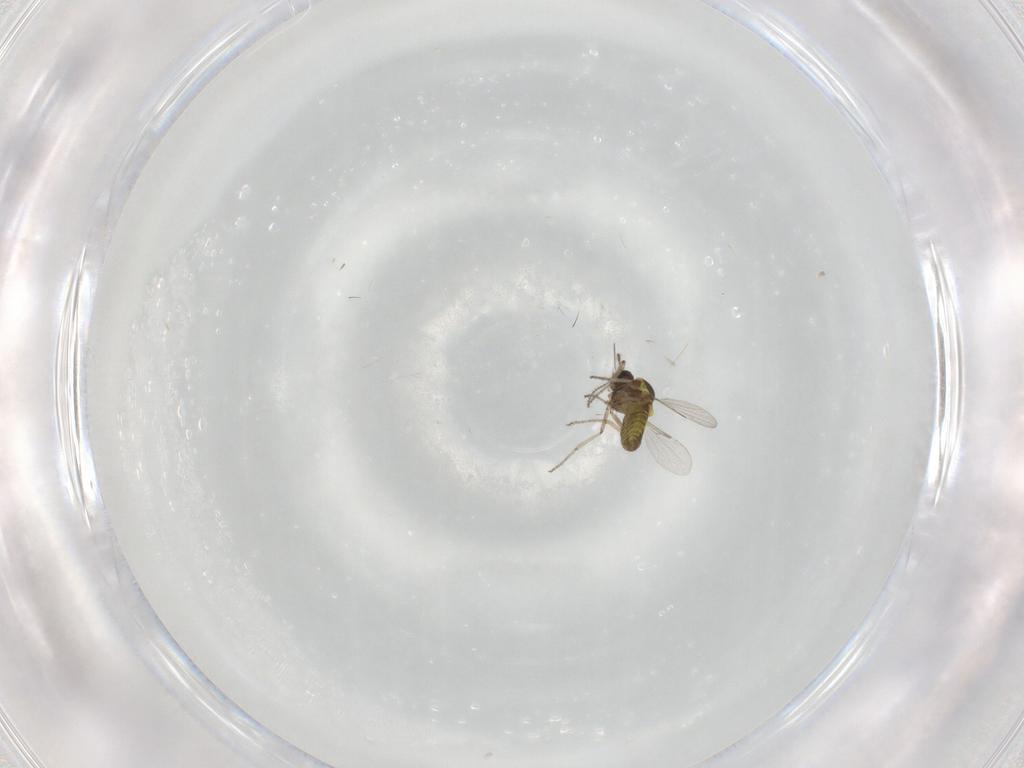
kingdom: Animalia
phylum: Arthropoda
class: Insecta
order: Diptera
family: Ceratopogonidae
